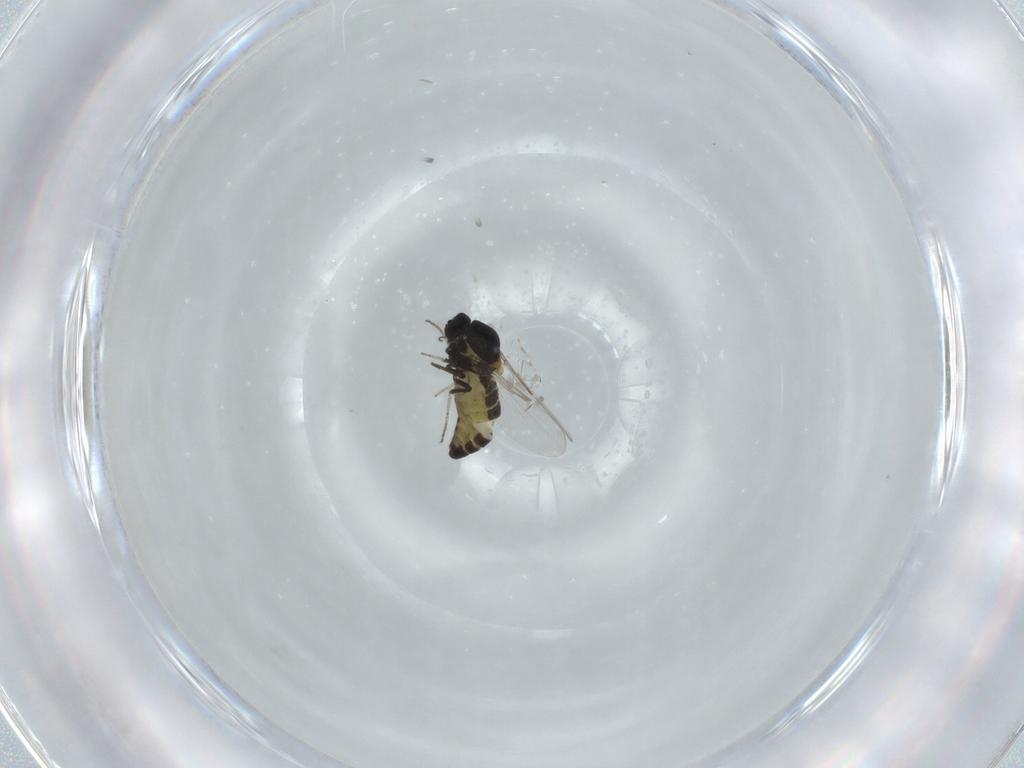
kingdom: Animalia
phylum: Arthropoda
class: Insecta
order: Diptera
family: Ceratopogonidae
